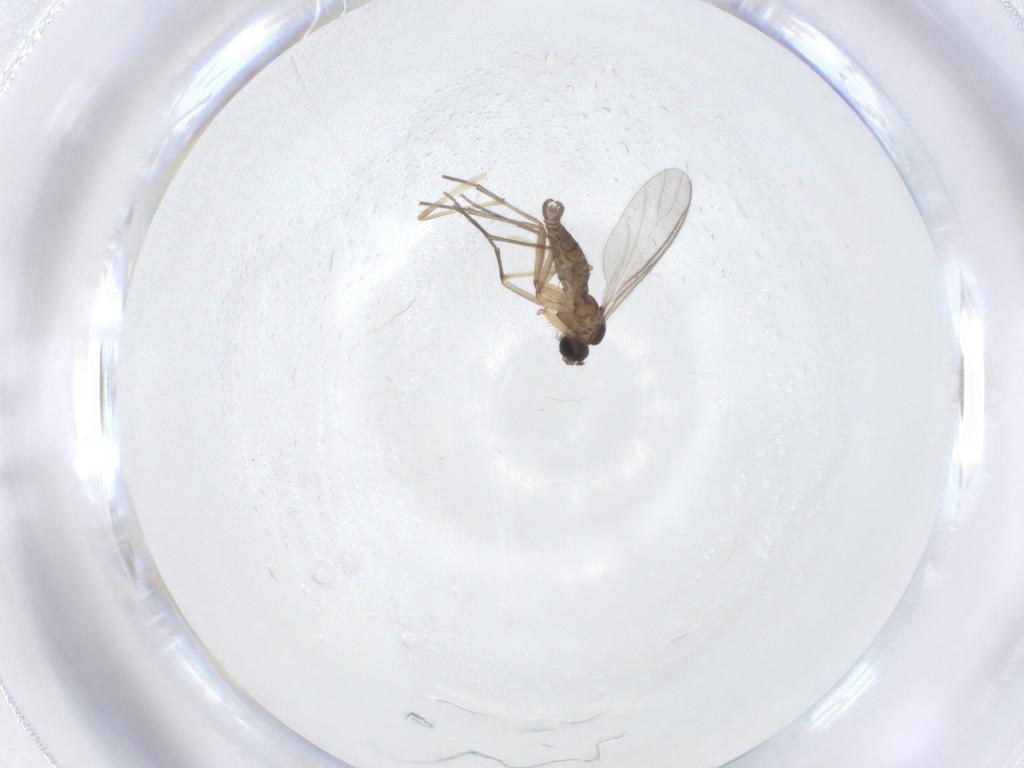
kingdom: Animalia
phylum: Arthropoda
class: Insecta
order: Diptera
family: Sciaridae
